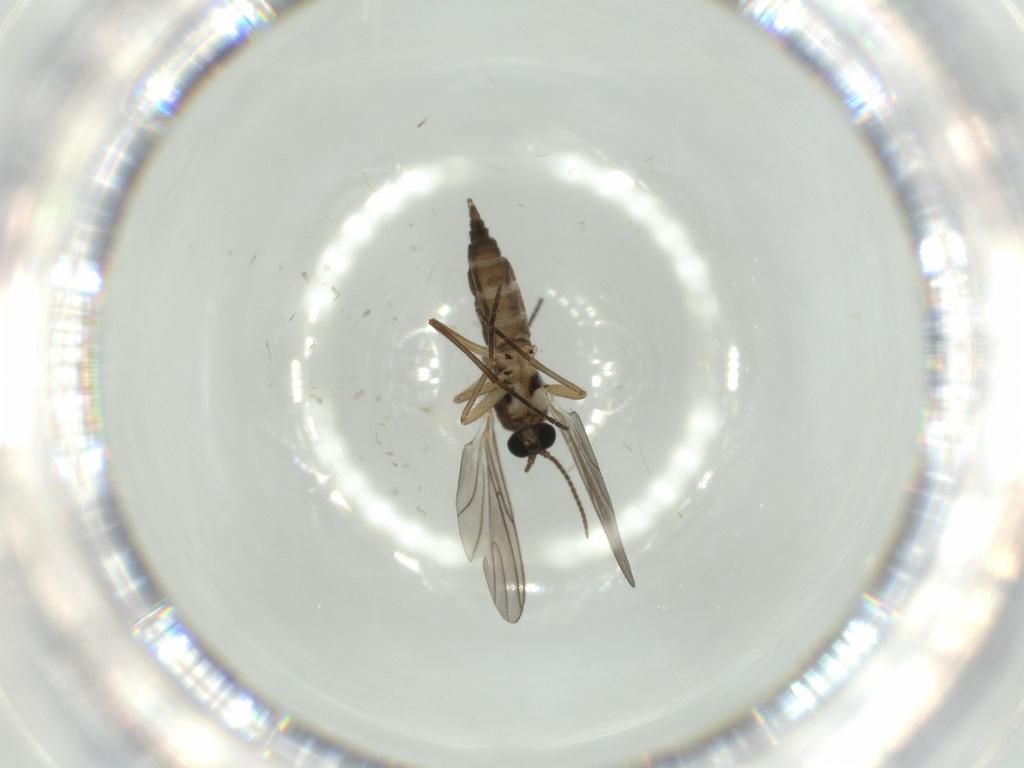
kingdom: Animalia
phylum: Arthropoda
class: Insecta
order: Diptera
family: Sciaridae
